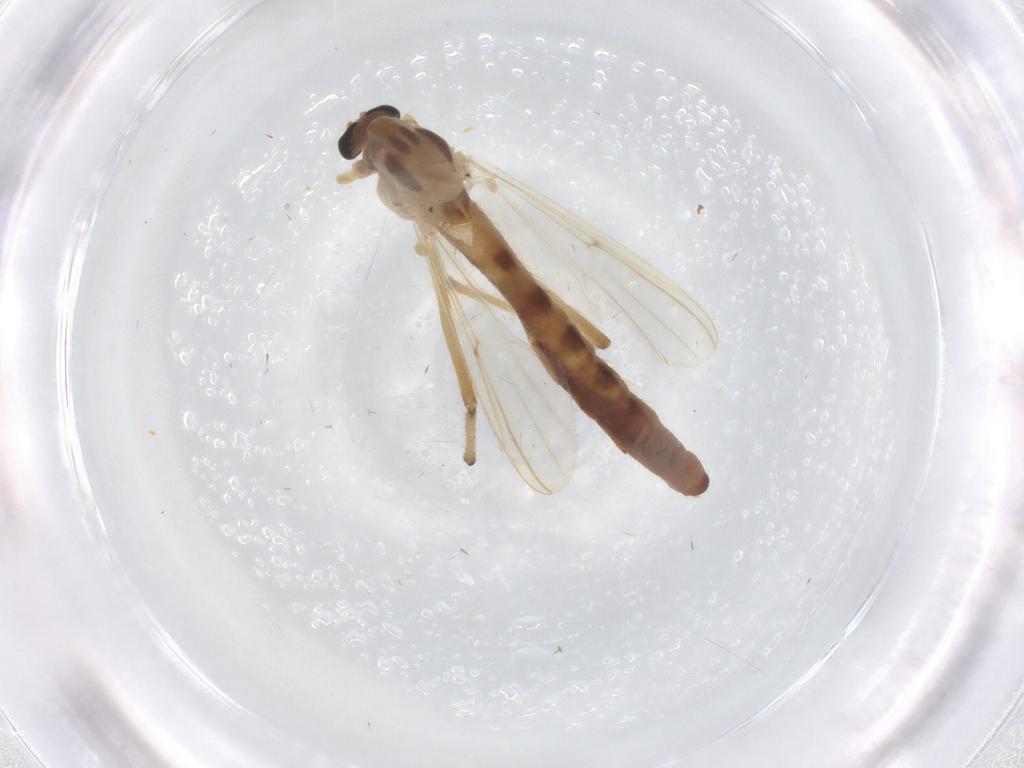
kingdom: Animalia
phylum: Arthropoda
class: Insecta
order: Diptera
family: Chironomidae
